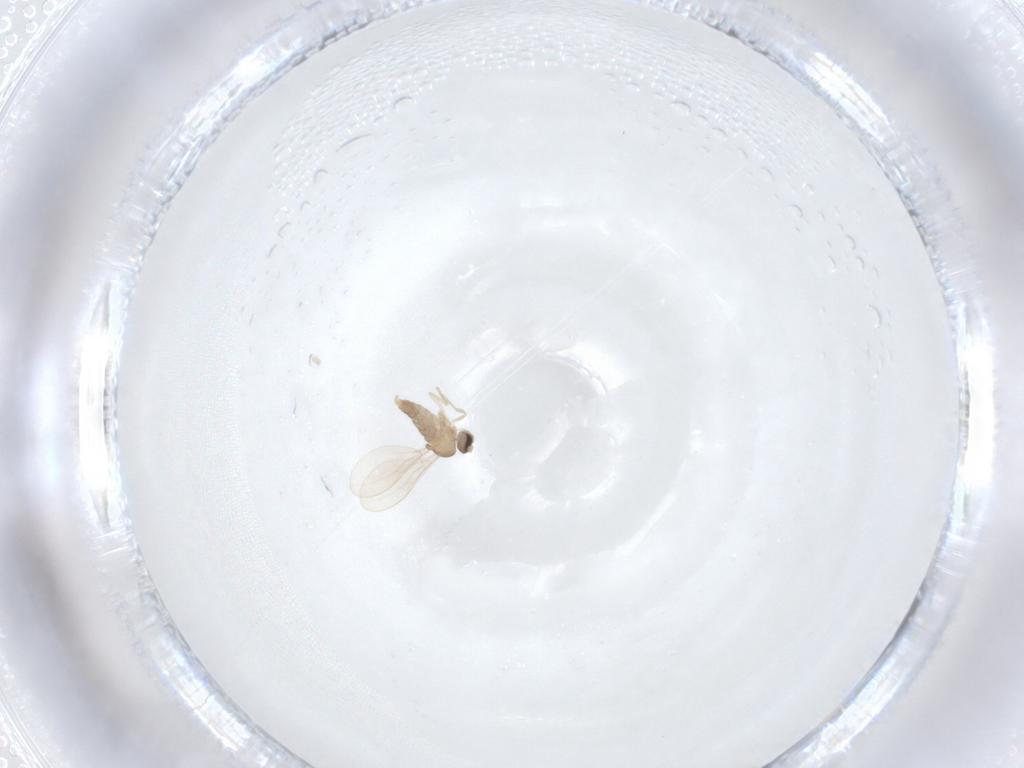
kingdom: Animalia
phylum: Arthropoda
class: Insecta
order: Diptera
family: Cecidomyiidae
